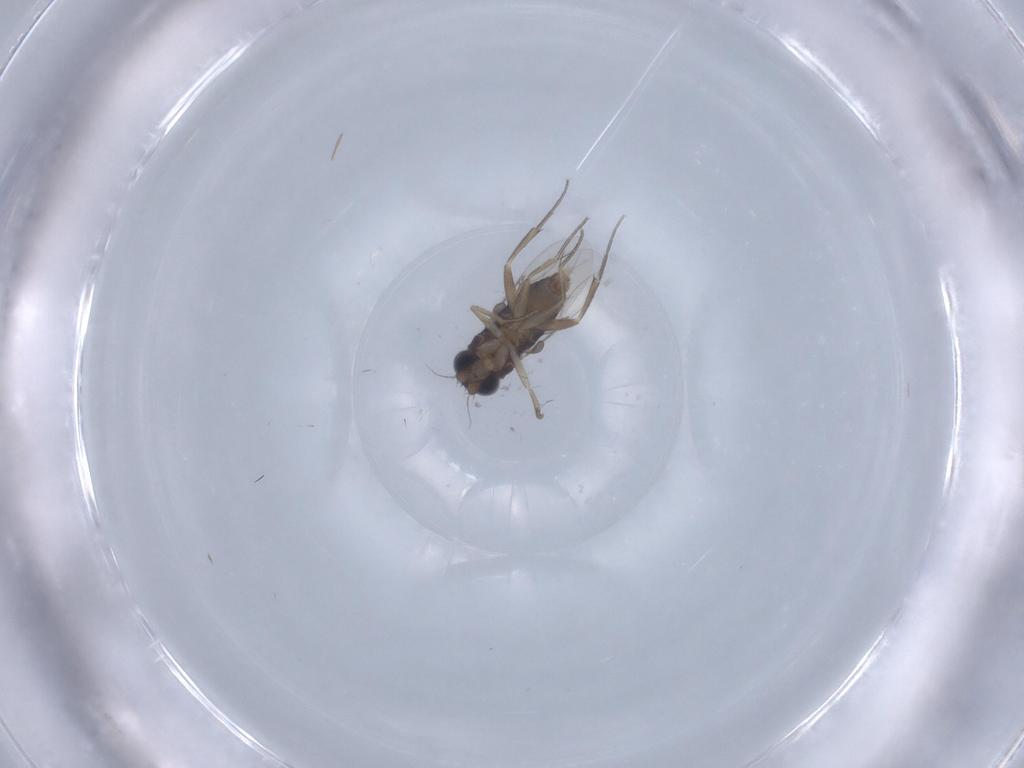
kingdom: Animalia
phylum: Arthropoda
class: Insecta
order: Diptera
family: Phoridae
